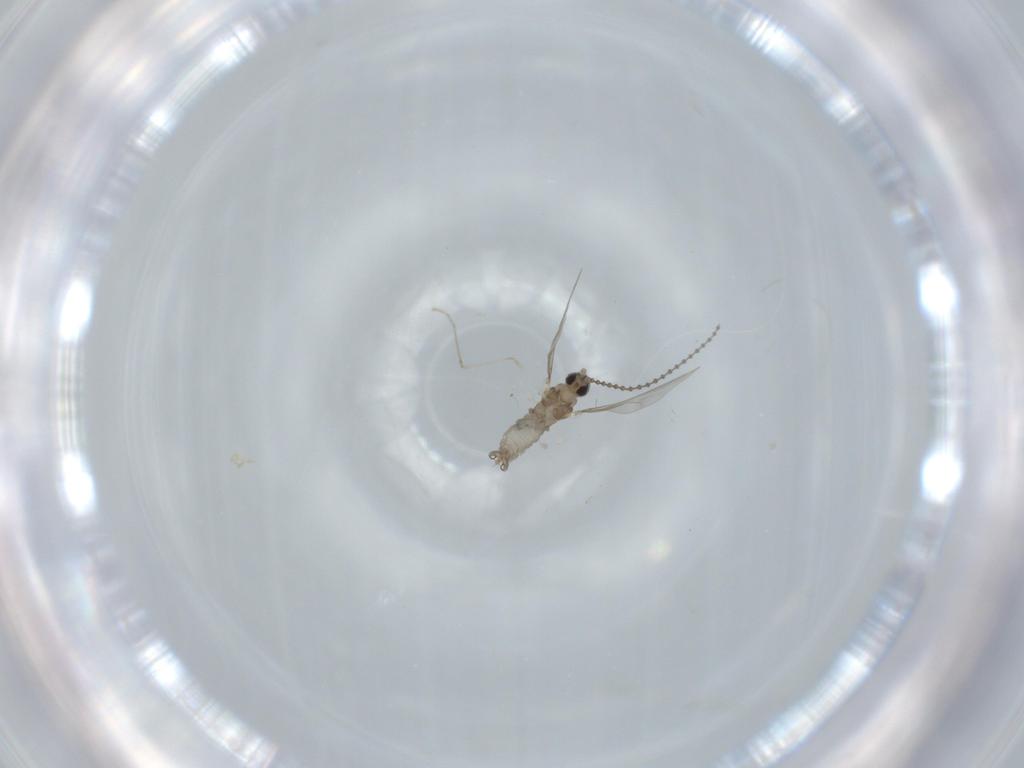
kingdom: Animalia
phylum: Arthropoda
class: Insecta
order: Diptera
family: Cecidomyiidae
